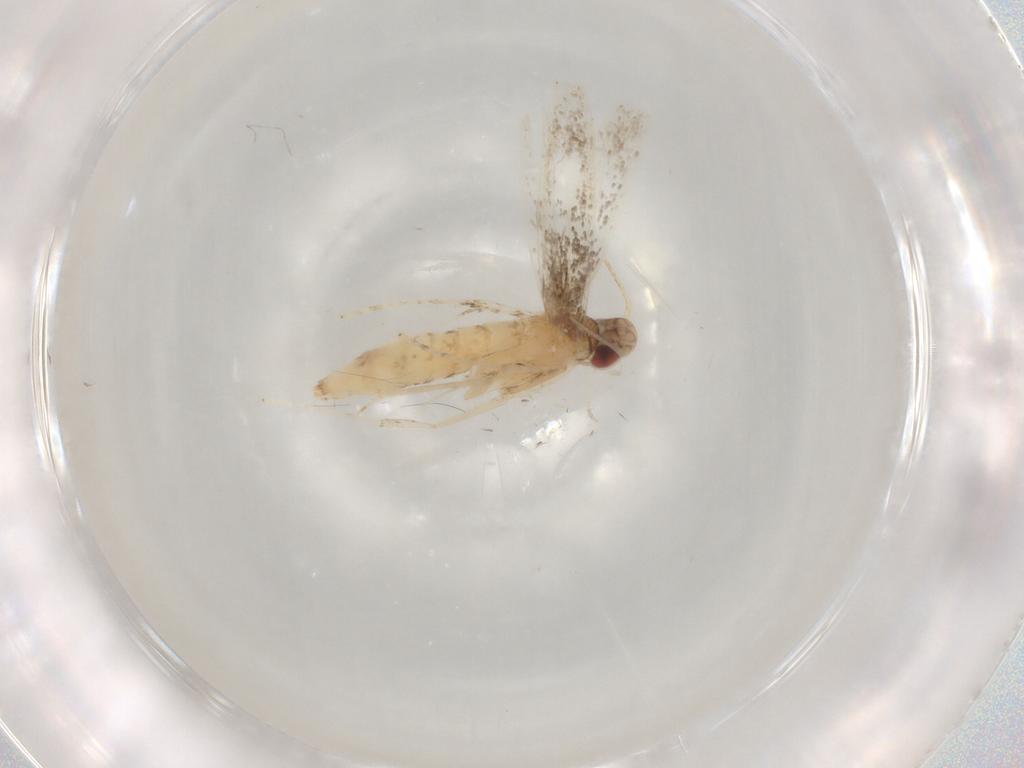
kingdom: Animalia
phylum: Arthropoda
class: Insecta
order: Lepidoptera
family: Gracillariidae
